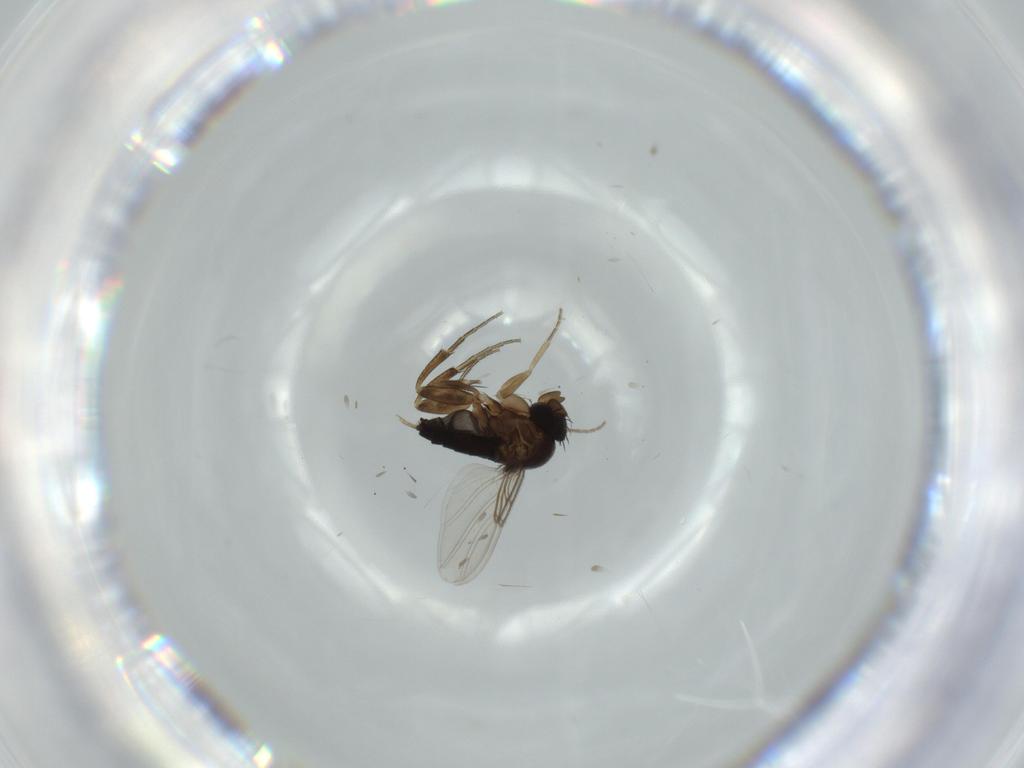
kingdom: Animalia
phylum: Arthropoda
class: Insecta
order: Diptera
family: Phoridae
